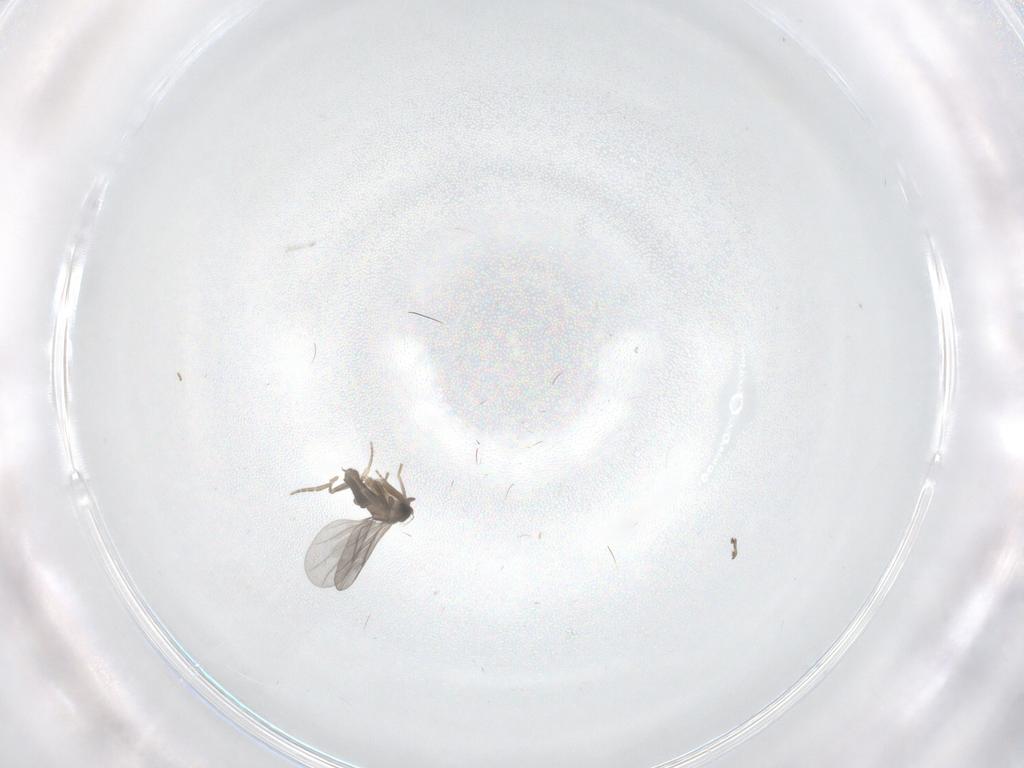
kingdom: Animalia
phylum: Arthropoda
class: Insecta
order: Diptera
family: Cecidomyiidae
